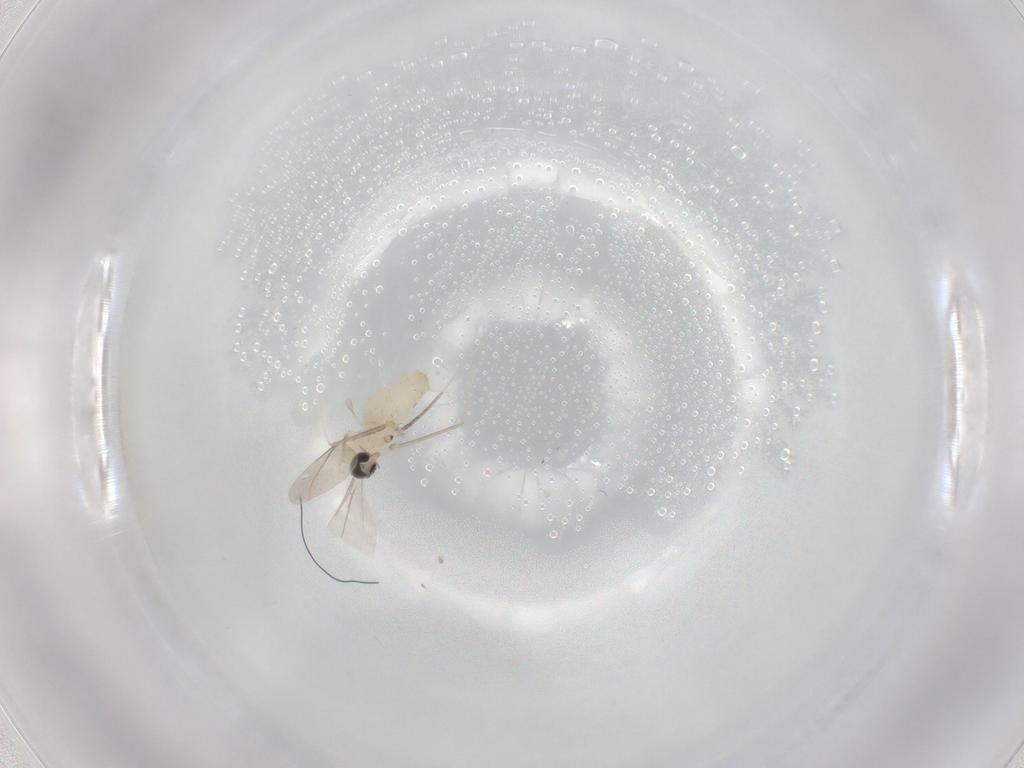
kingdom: Animalia
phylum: Arthropoda
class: Insecta
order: Diptera
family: Cecidomyiidae
